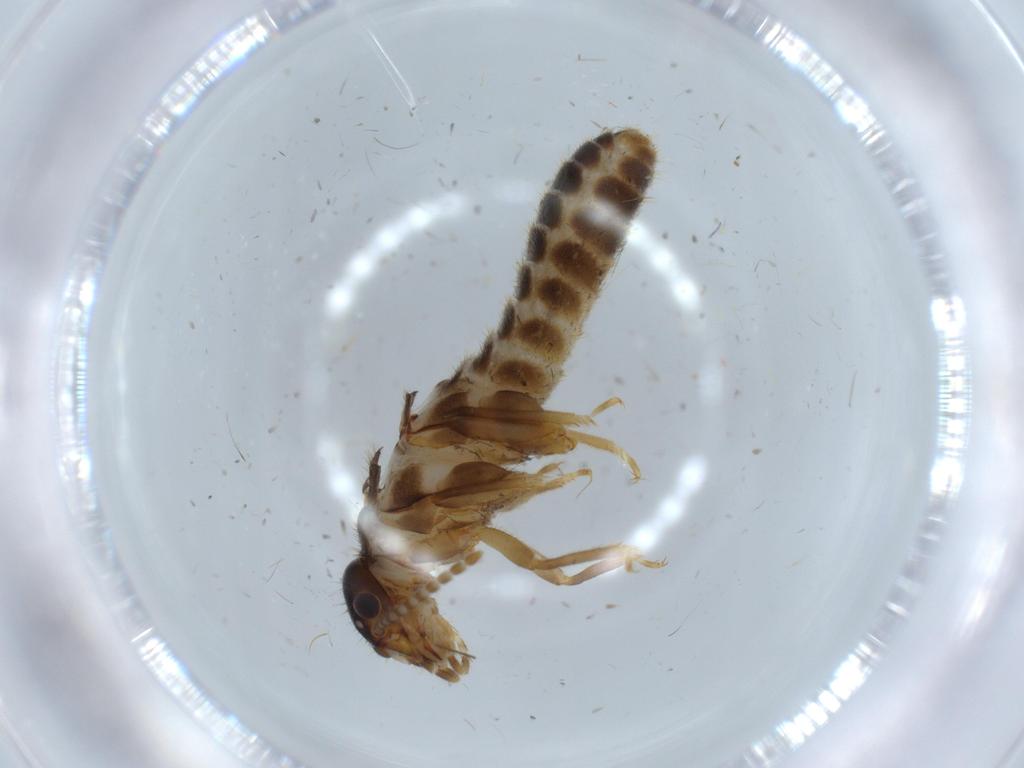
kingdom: Animalia
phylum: Arthropoda
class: Insecta
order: Blattodea
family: Termitidae
